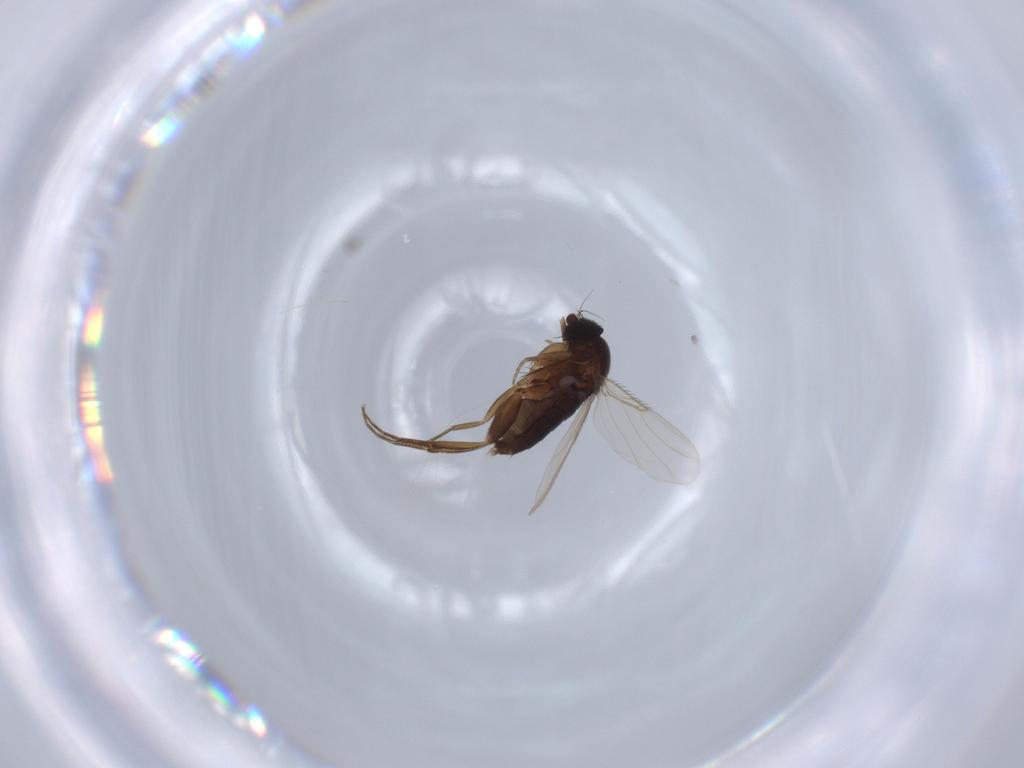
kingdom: Animalia
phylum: Arthropoda
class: Insecta
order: Diptera
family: Phoridae
